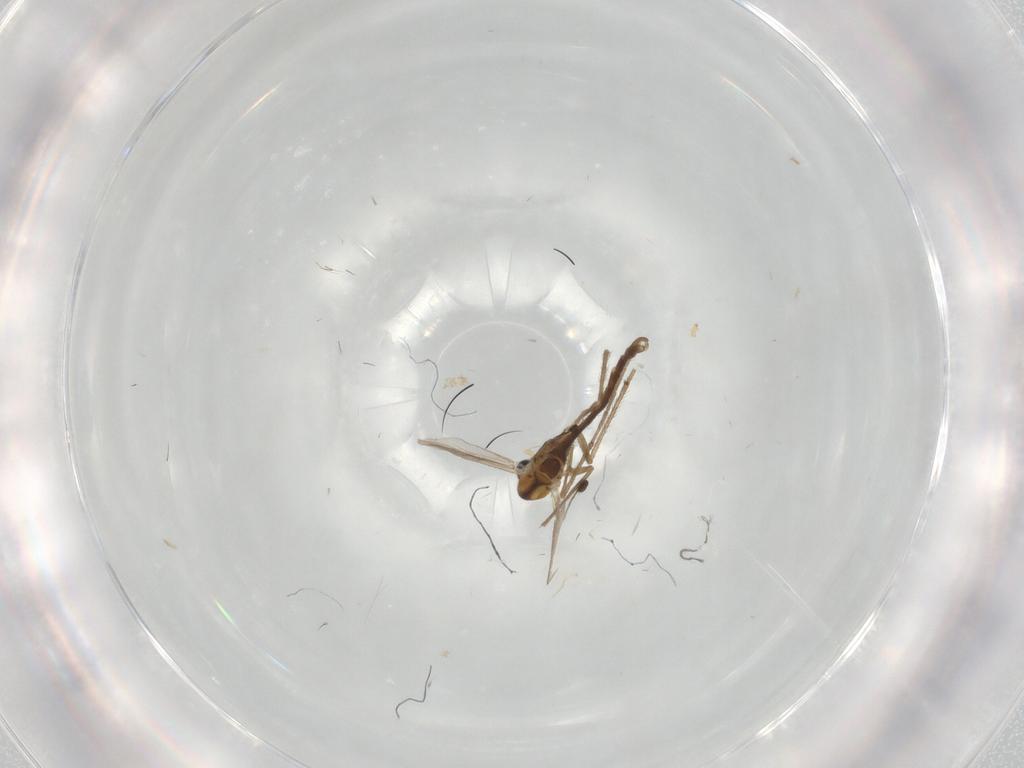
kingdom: Animalia
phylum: Arthropoda
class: Insecta
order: Diptera
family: Chironomidae
